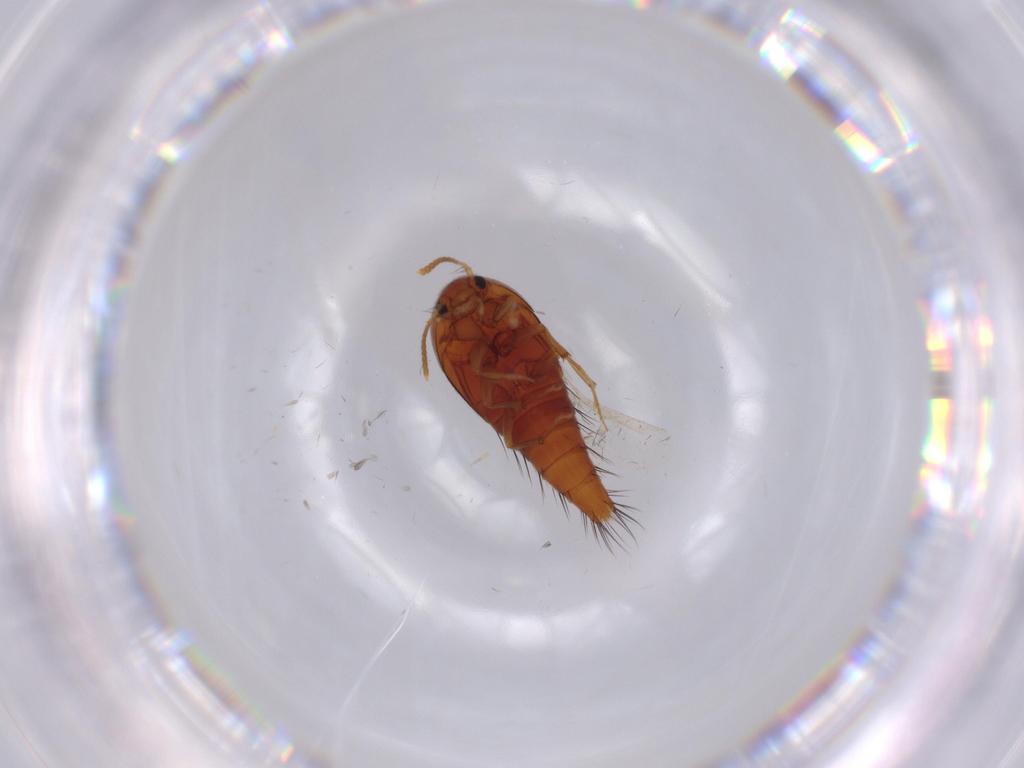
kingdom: Animalia
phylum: Arthropoda
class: Insecta
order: Coleoptera
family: Staphylinidae
